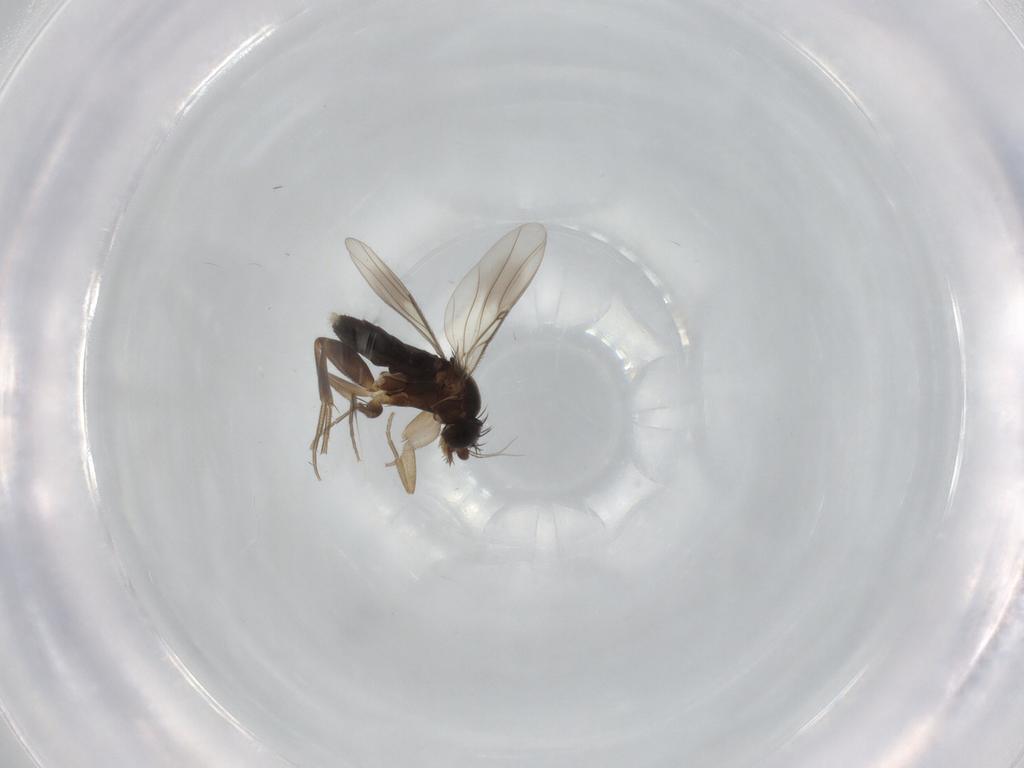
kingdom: Animalia
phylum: Arthropoda
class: Insecta
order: Diptera
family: Phoridae
